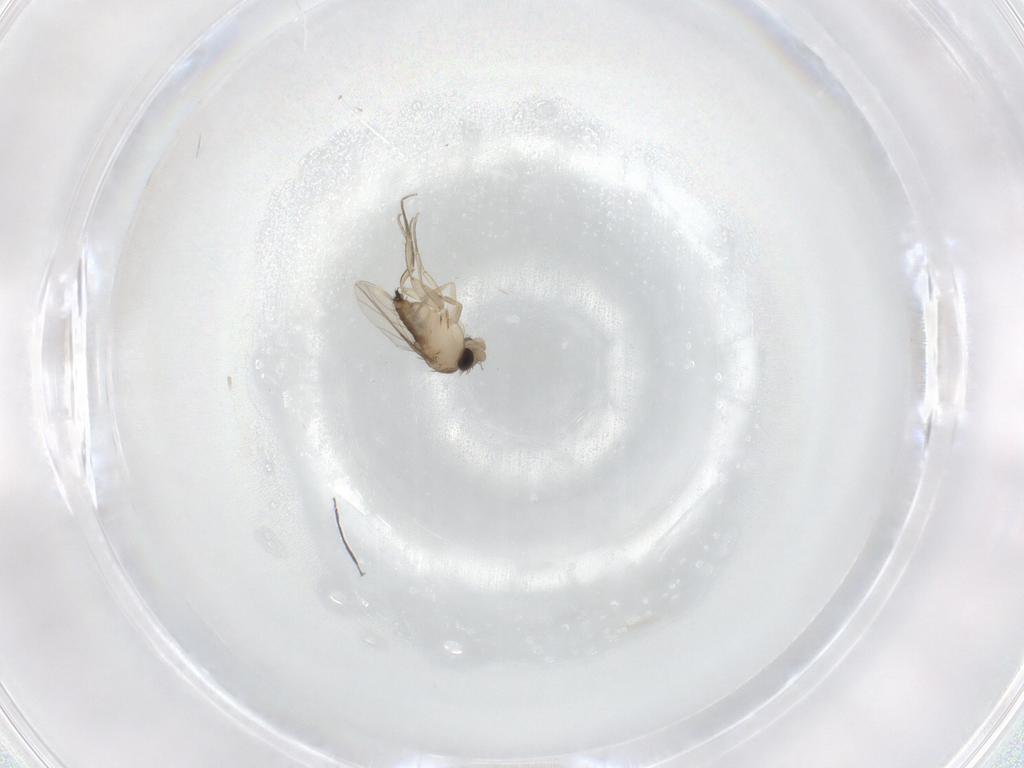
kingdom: Animalia
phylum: Arthropoda
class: Insecta
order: Diptera
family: Phoridae
